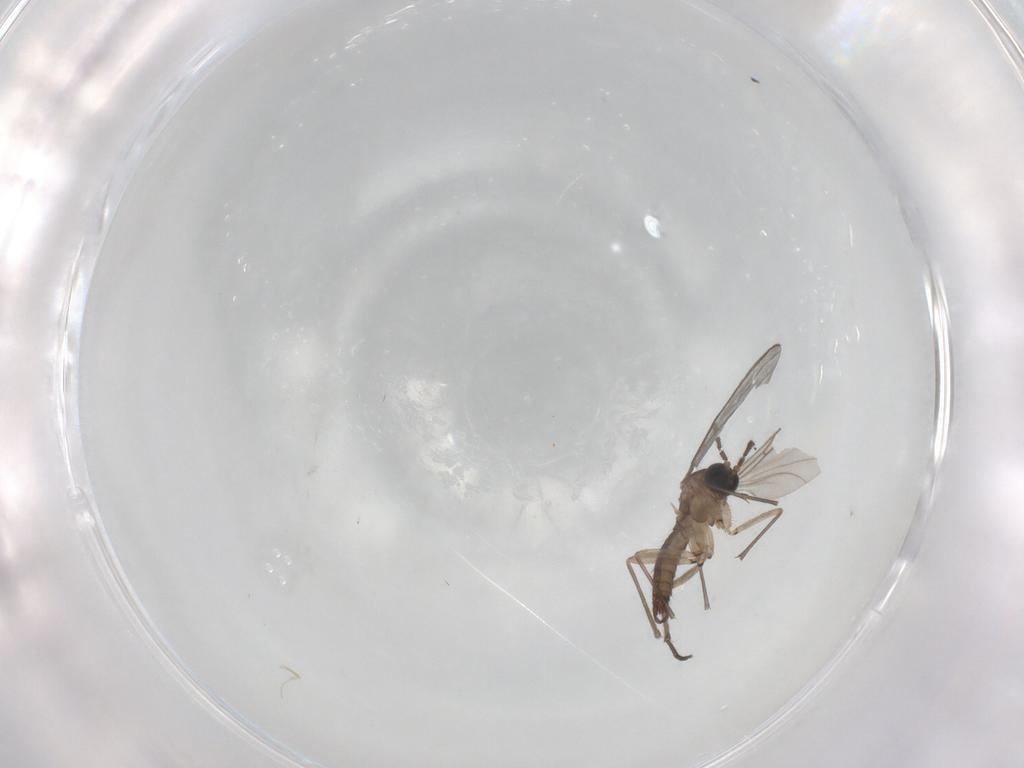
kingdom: Animalia
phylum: Arthropoda
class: Insecta
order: Diptera
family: Sciaridae
